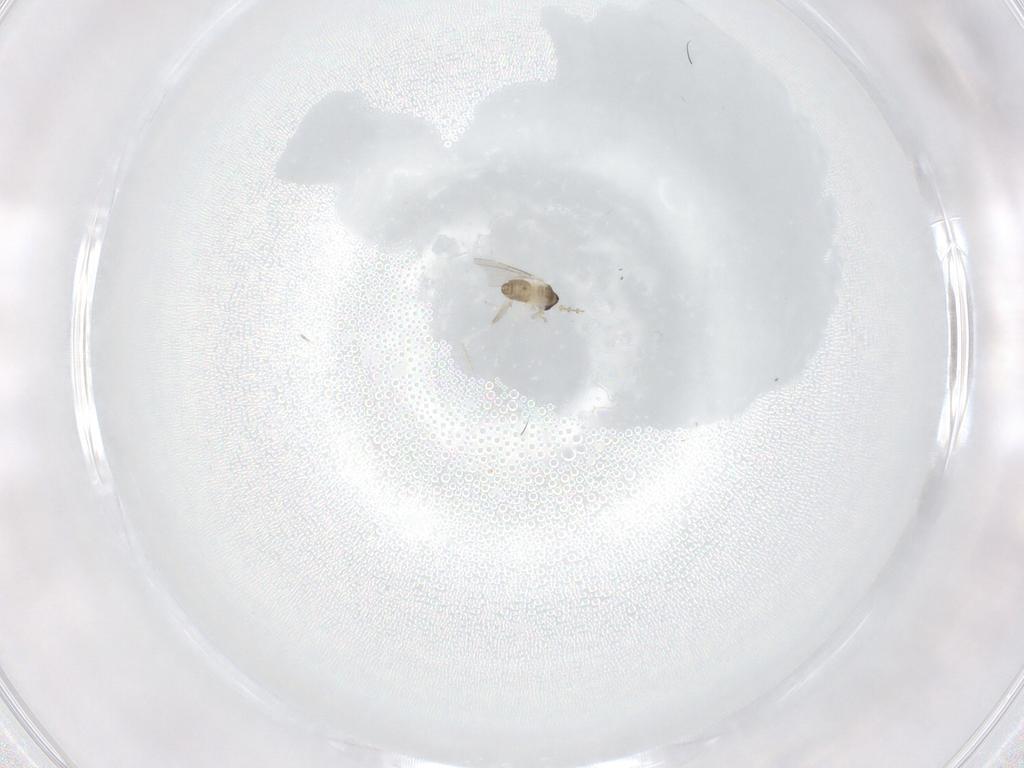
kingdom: Animalia
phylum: Arthropoda
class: Insecta
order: Diptera
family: Cecidomyiidae
